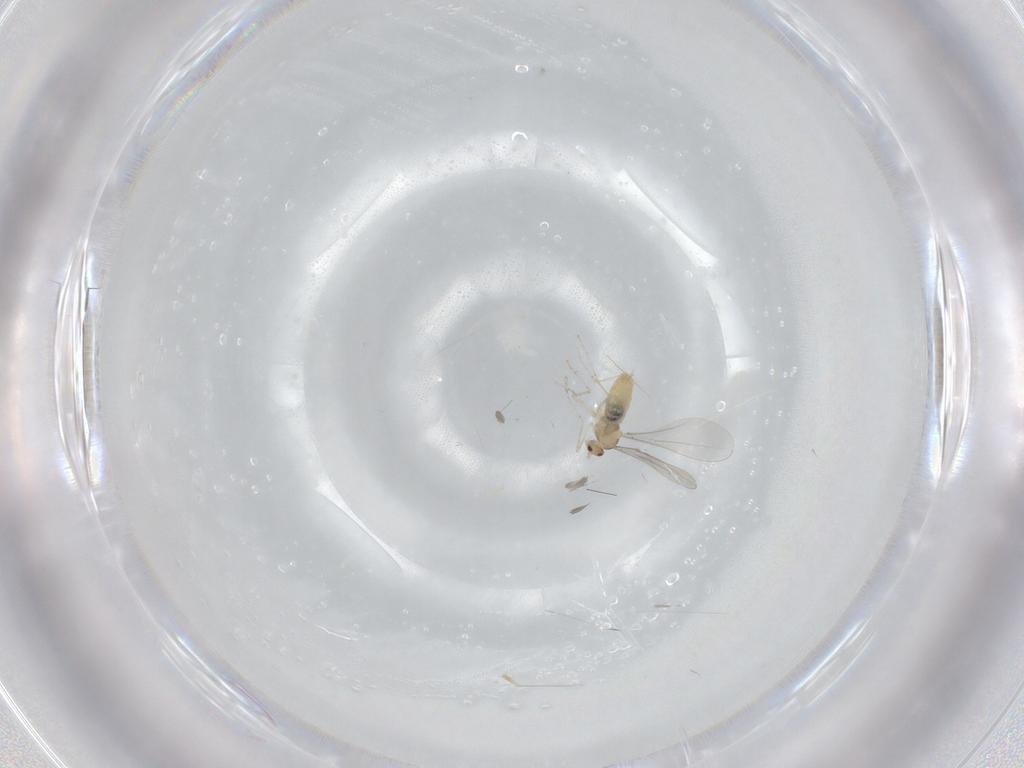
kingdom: Animalia
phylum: Arthropoda
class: Insecta
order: Diptera
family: Cecidomyiidae
